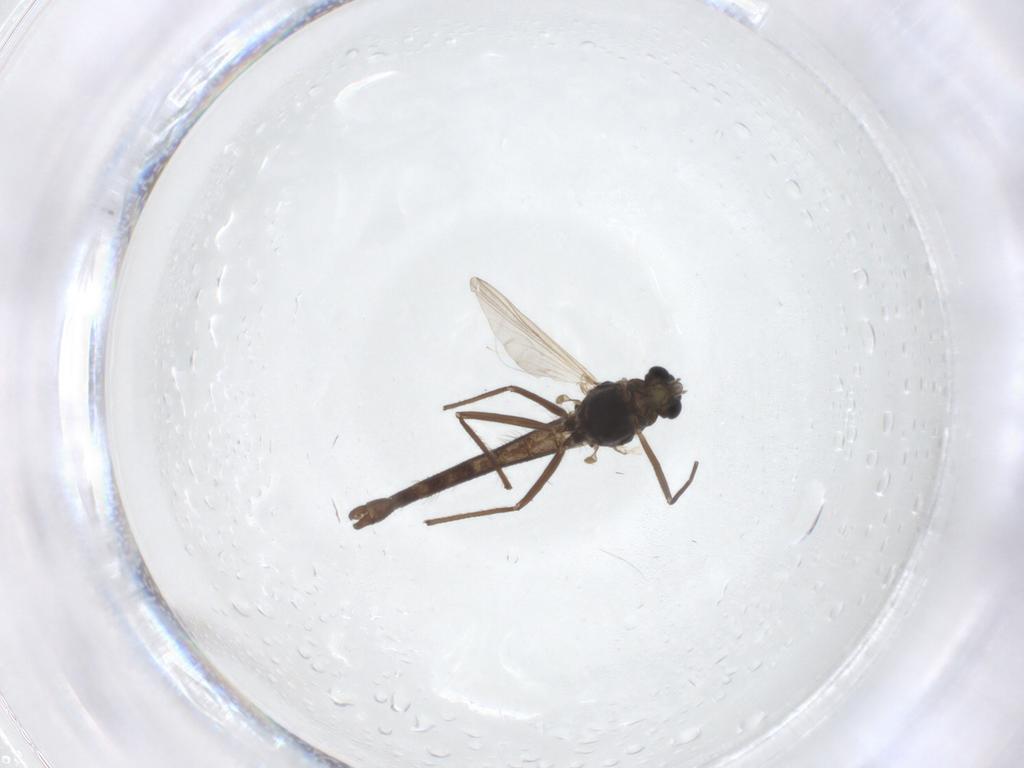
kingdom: Animalia
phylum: Arthropoda
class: Insecta
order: Diptera
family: Chironomidae
